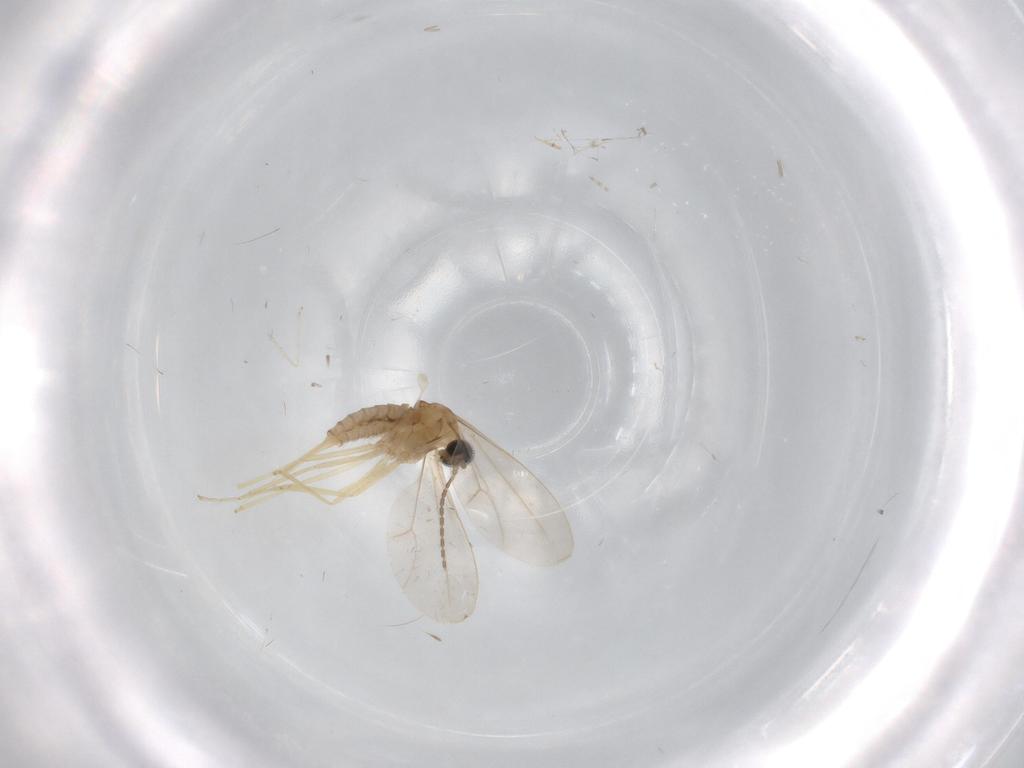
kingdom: Animalia
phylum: Arthropoda
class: Insecta
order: Diptera
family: Cecidomyiidae
